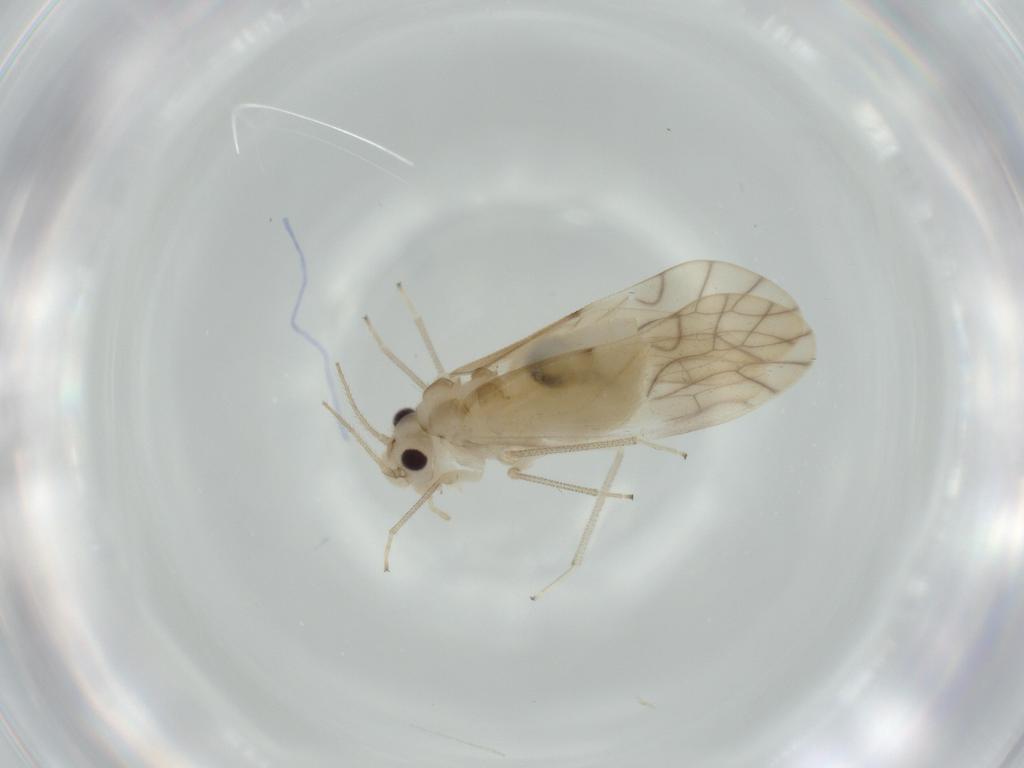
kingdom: Animalia
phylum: Arthropoda
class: Insecta
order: Psocodea
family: Caeciliusidae
